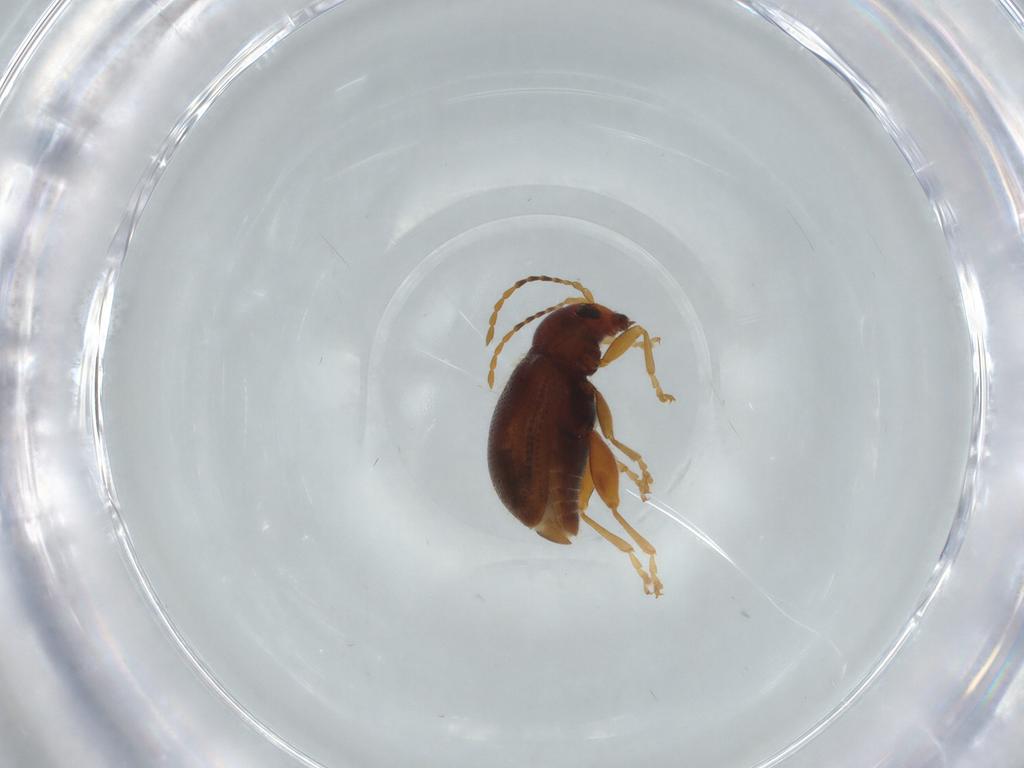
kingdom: Animalia
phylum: Arthropoda
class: Insecta
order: Coleoptera
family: Chrysomelidae
